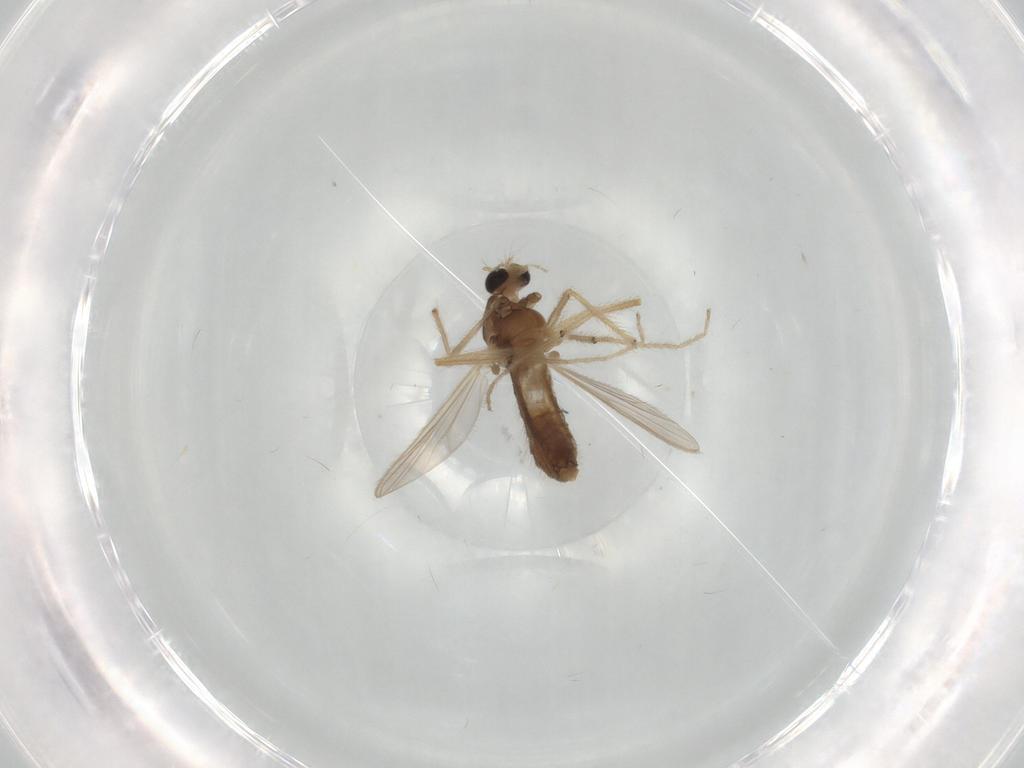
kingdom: Animalia
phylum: Arthropoda
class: Insecta
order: Diptera
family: Chironomidae
